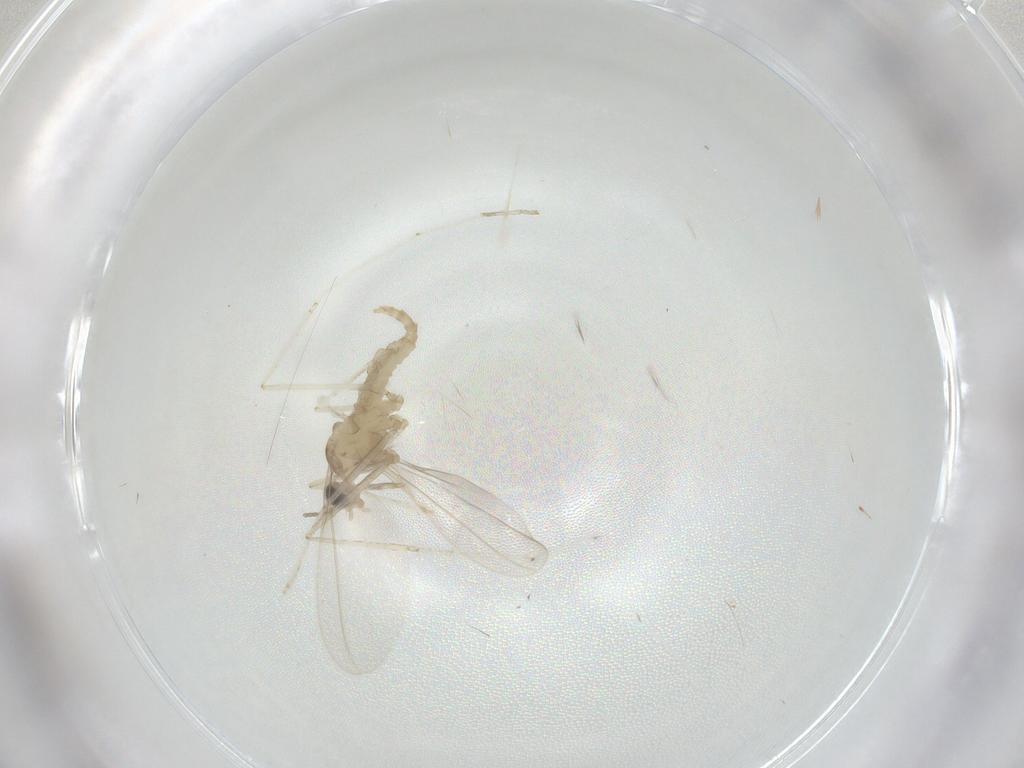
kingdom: Animalia
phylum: Arthropoda
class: Insecta
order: Diptera
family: Cecidomyiidae
